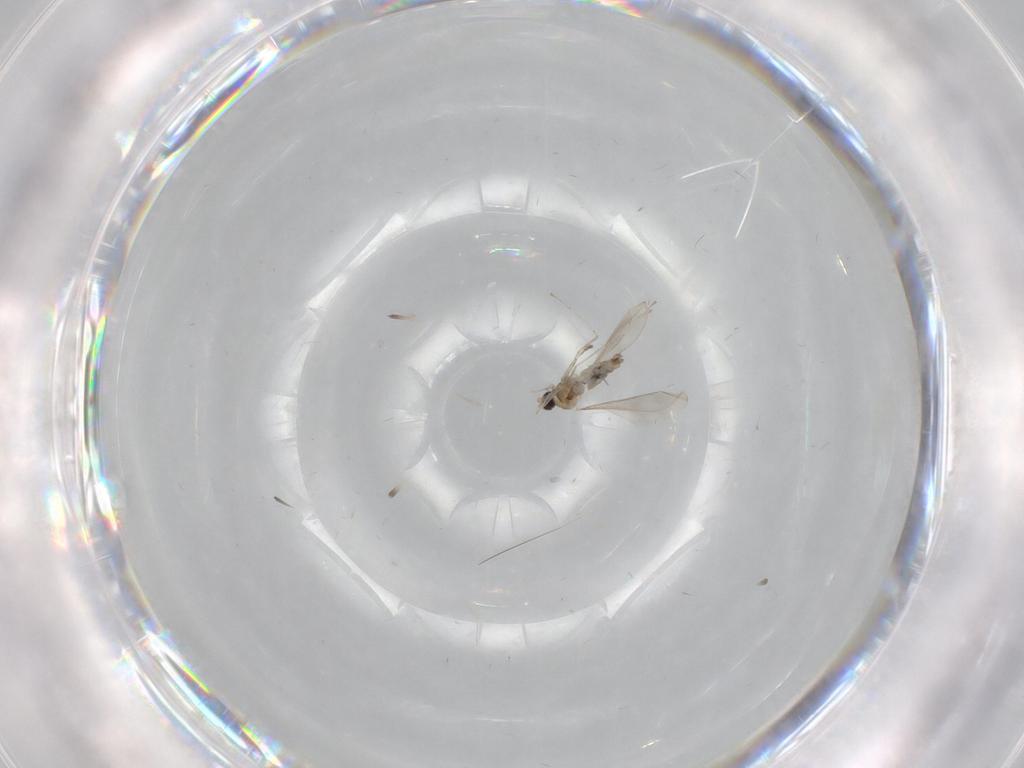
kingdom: Animalia
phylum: Arthropoda
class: Insecta
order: Diptera
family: Cecidomyiidae
